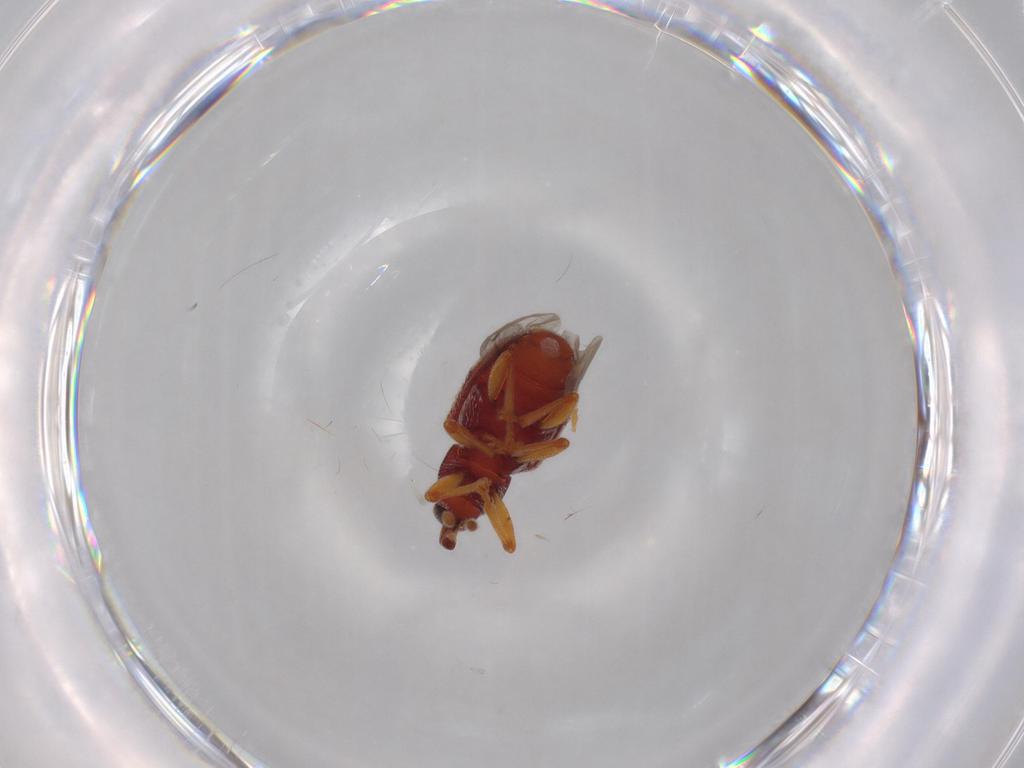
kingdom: Animalia
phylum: Arthropoda
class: Insecta
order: Coleoptera
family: Curculionidae
